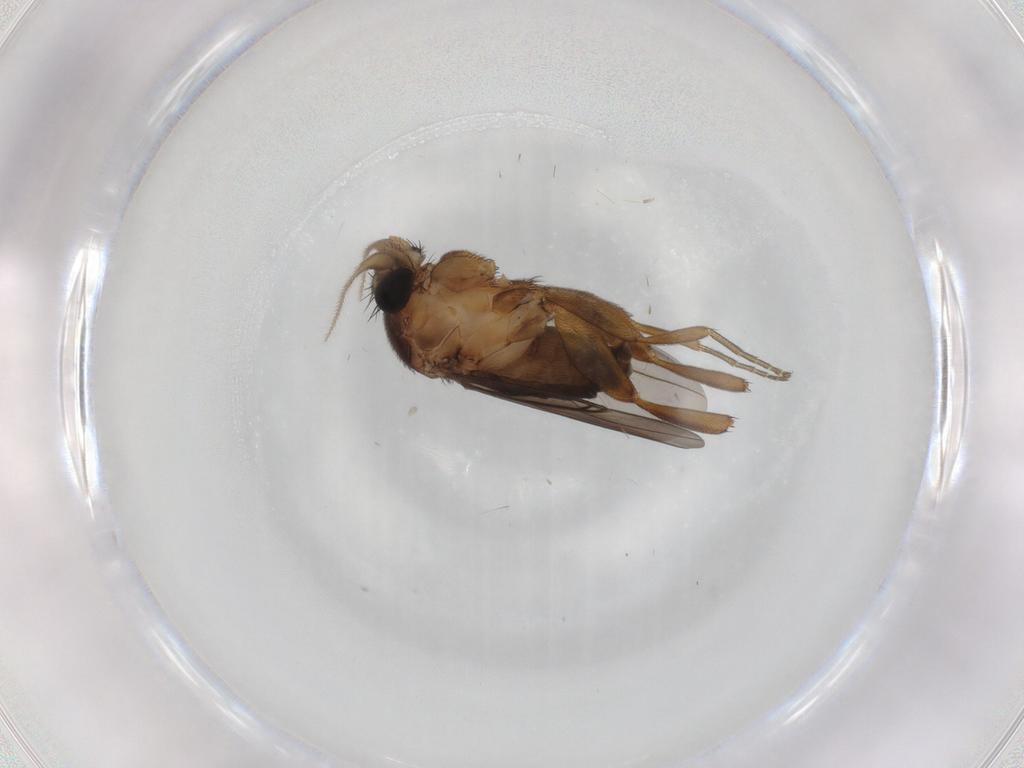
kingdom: Animalia
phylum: Arthropoda
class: Insecta
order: Diptera
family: Phoridae
